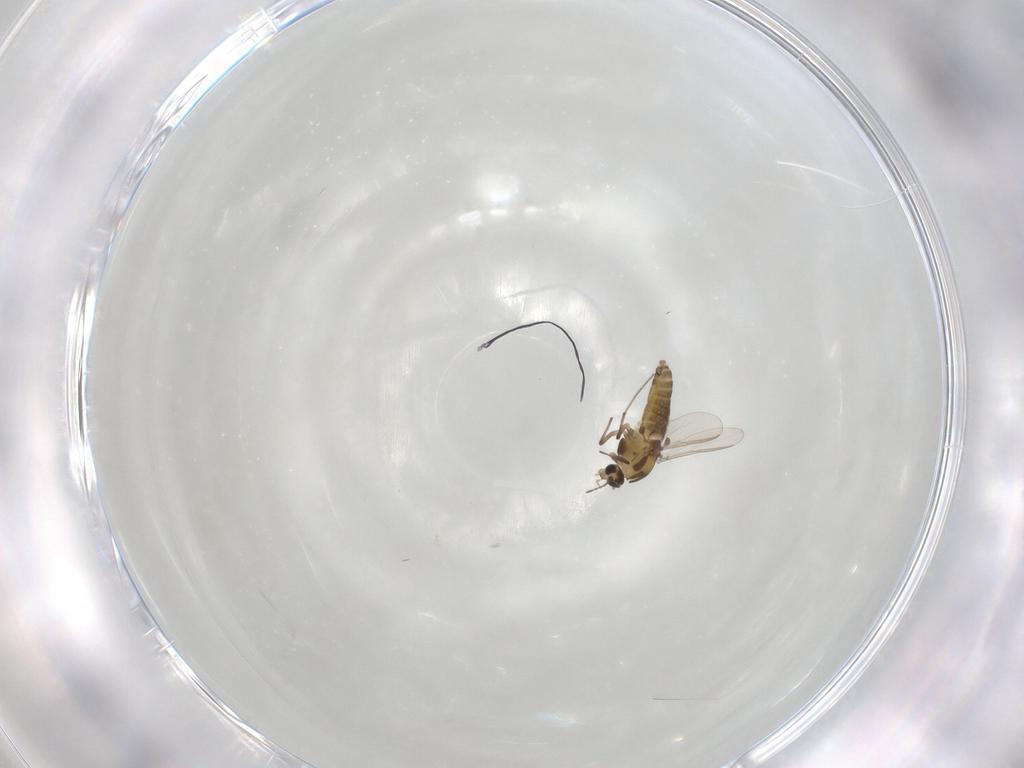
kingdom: Animalia
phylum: Arthropoda
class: Insecta
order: Diptera
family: Chironomidae
